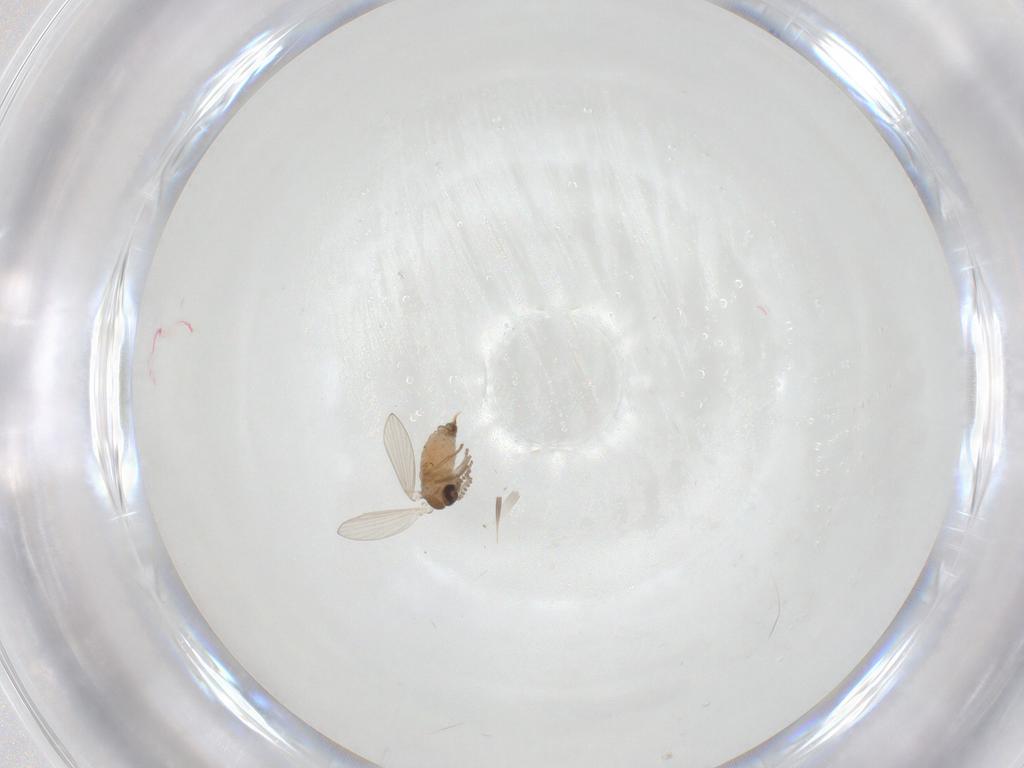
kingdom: Animalia
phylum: Arthropoda
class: Insecta
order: Diptera
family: Psychodidae
